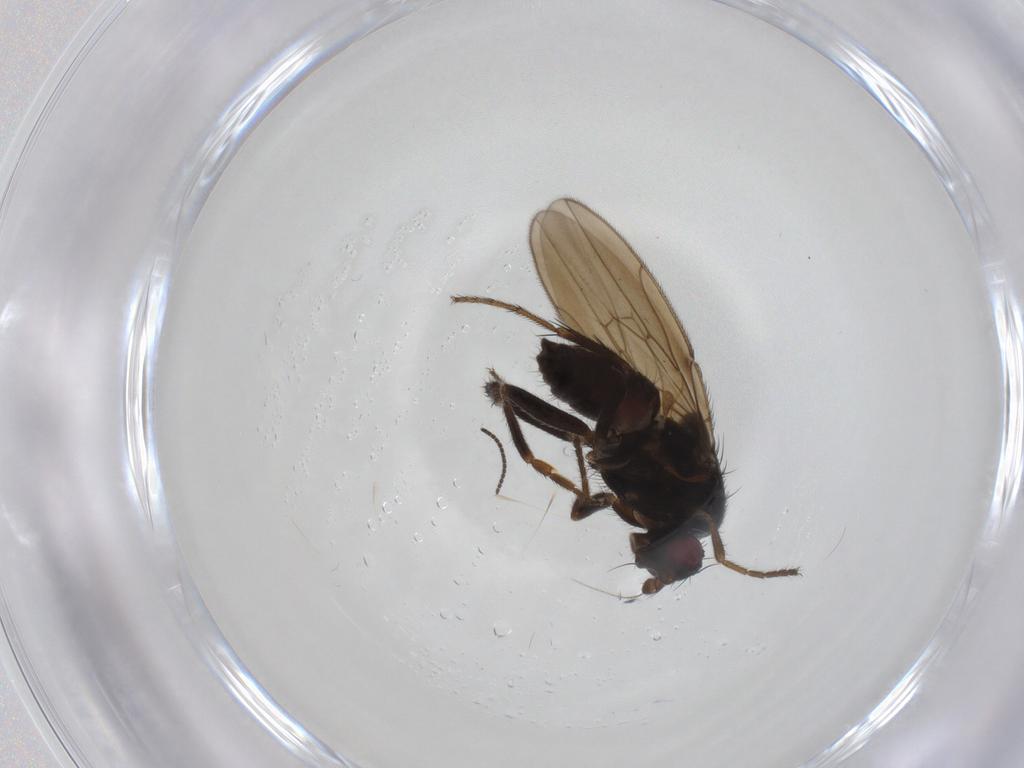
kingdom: Animalia
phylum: Arthropoda
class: Insecta
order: Diptera
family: Sphaeroceridae
